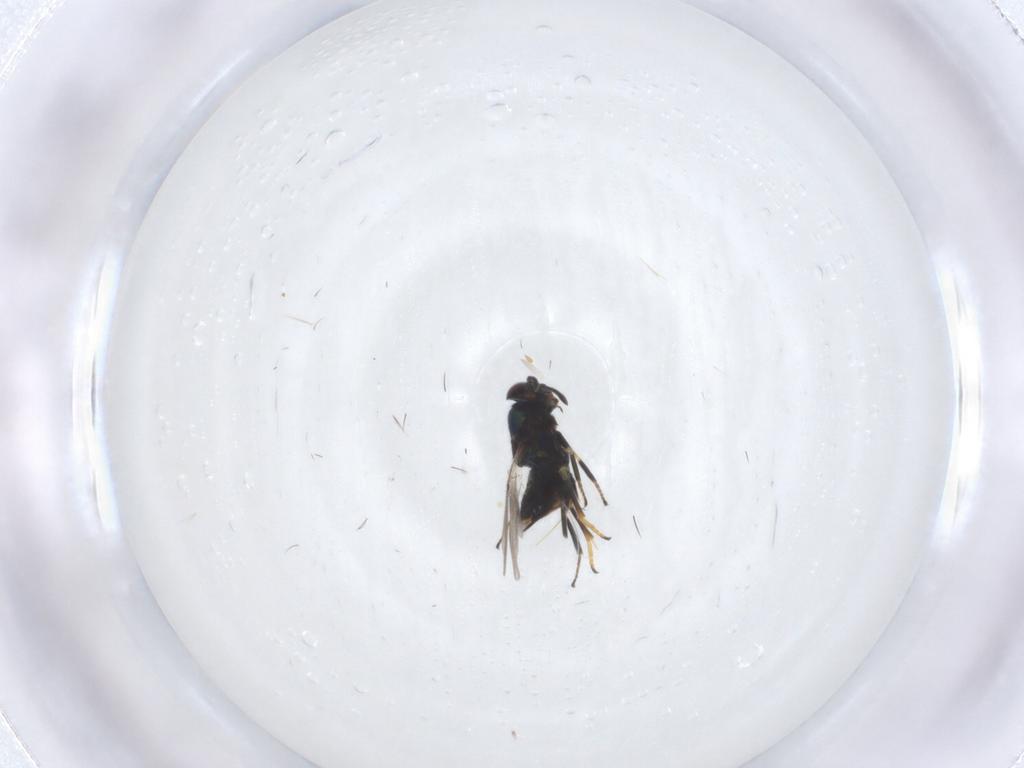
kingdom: Animalia
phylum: Arthropoda
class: Insecta
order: Hymenoptera
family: Encyrtidae
